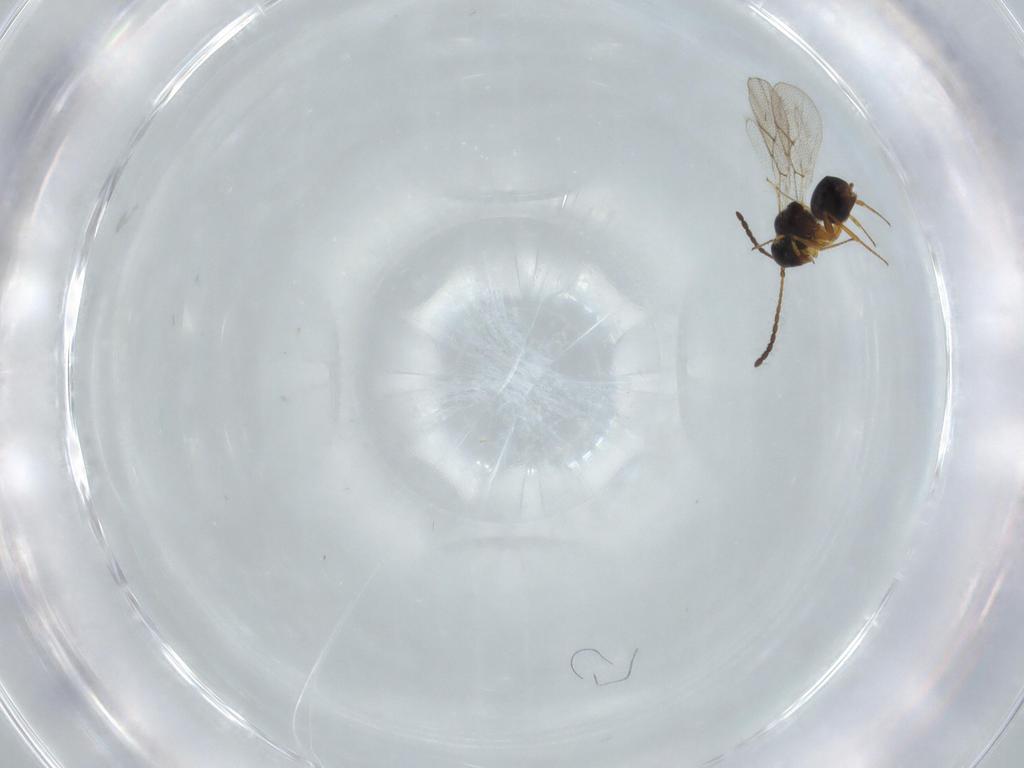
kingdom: Animalia
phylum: Arthropoda
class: Insecta
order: Hymenoptera
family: Figitidae
